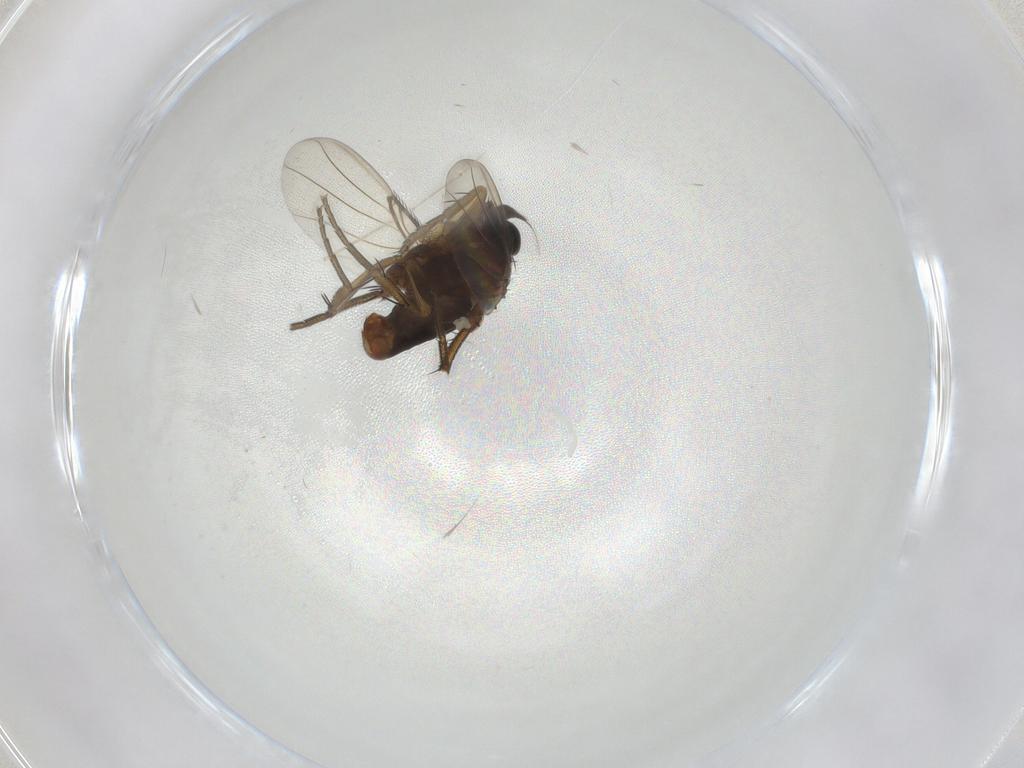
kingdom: Animalia
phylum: Arthropoda
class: Insecta
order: Diptera
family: Phoridae
